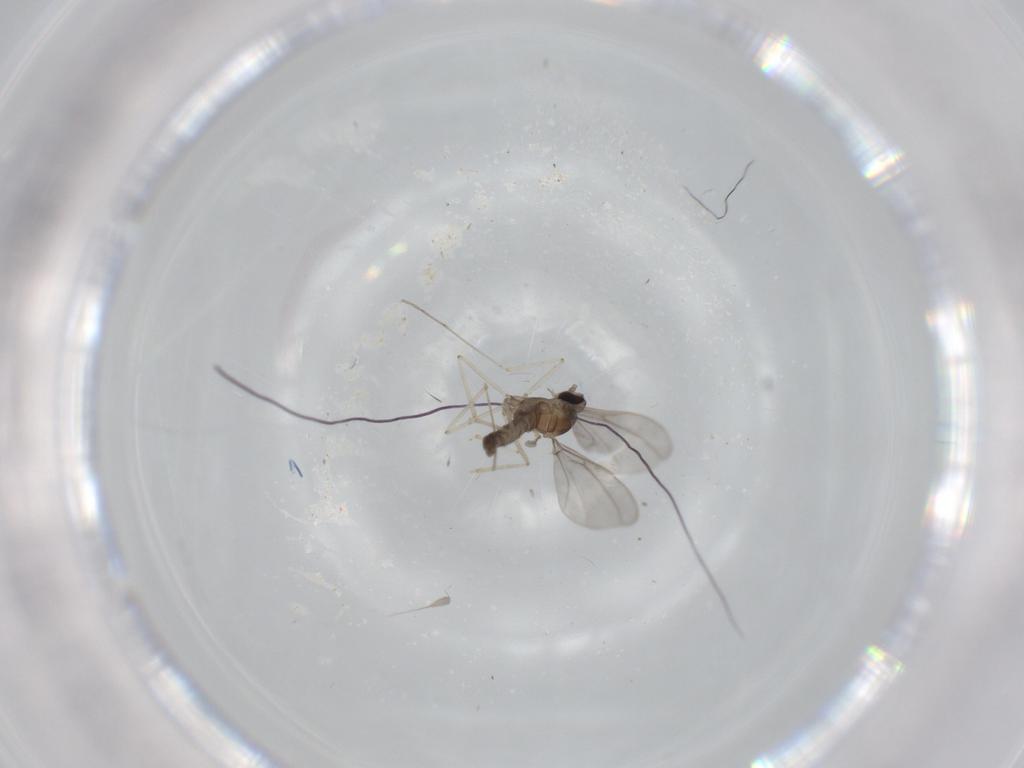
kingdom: Animalia
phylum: Arthropoda
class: Insecta
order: Diptera
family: Cecidomyiidae
